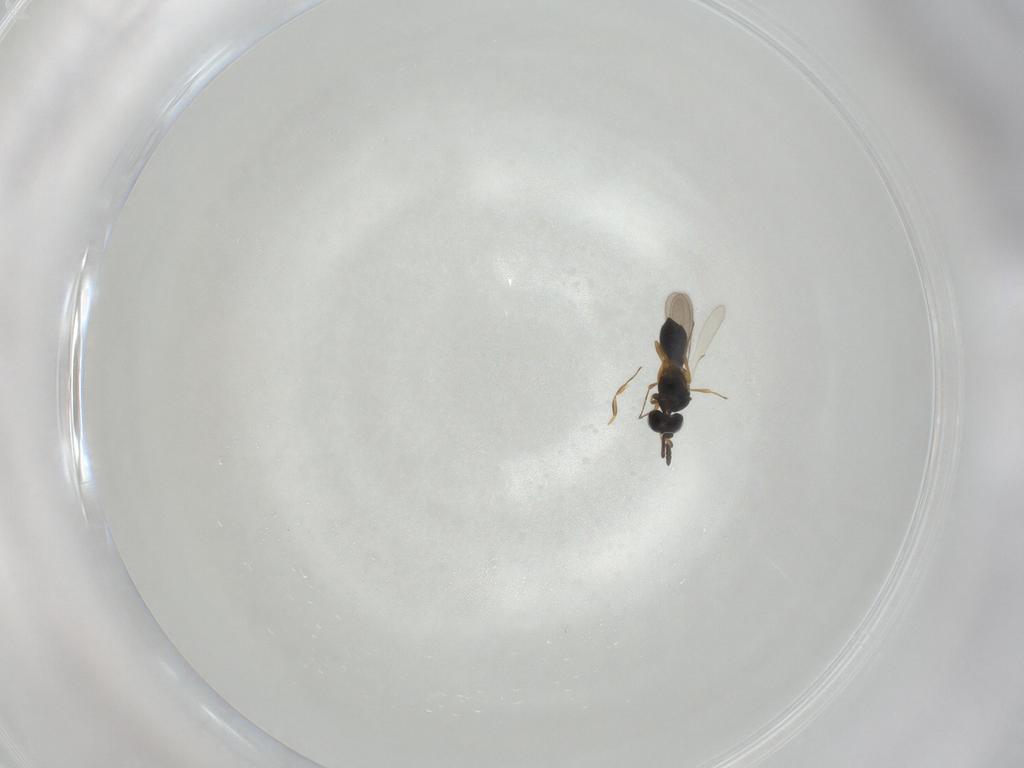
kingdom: Animalia
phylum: Arthropoda
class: Insecta
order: Hymenoptera
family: Scelionidae
